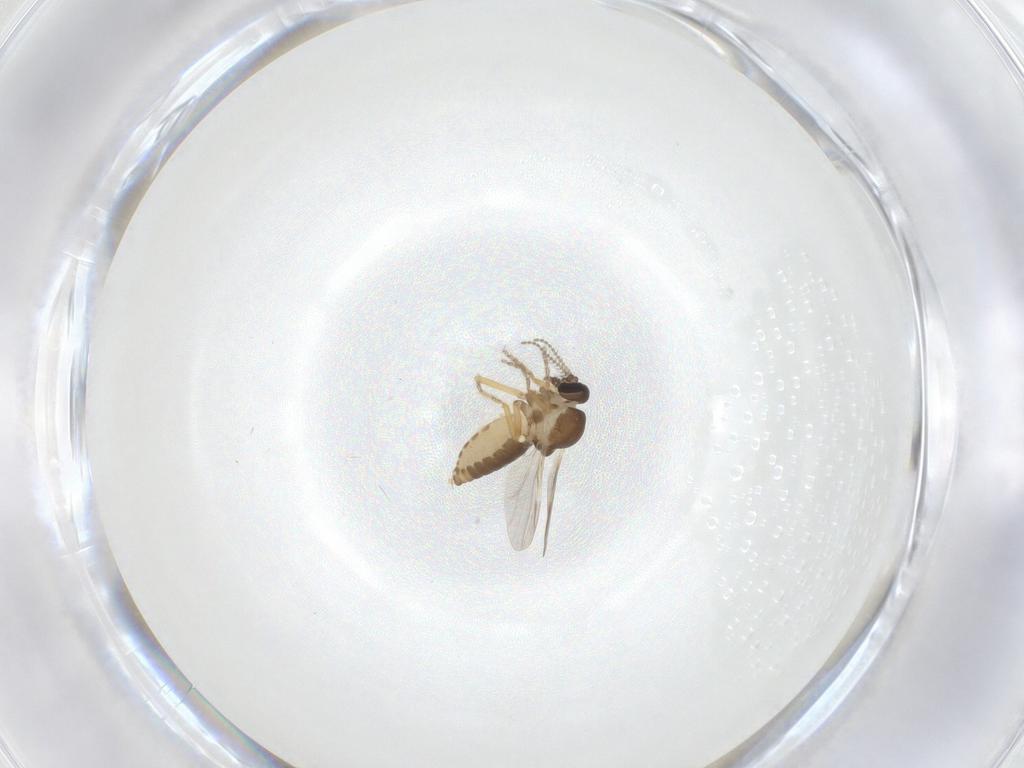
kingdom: Animalia
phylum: Arthropoda
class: Insecta
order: Diptera
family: Ceratopogonidae
